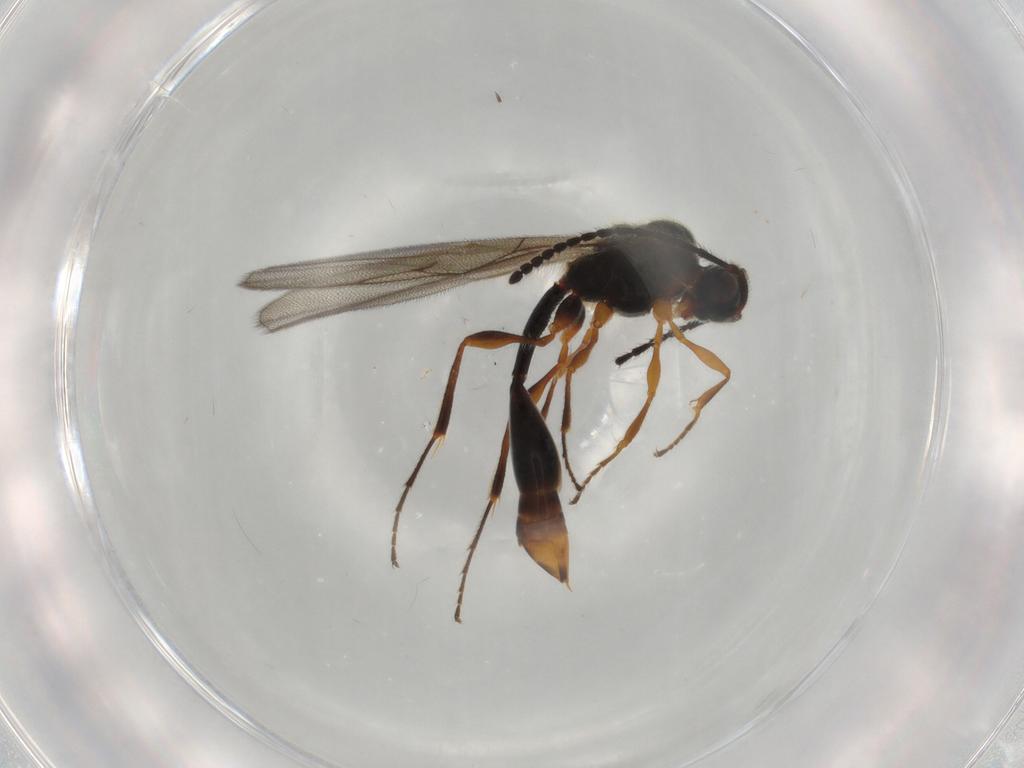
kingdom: Animalia
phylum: Arthropoda
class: Insecta
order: Hymenoptera
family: Diapriidae
